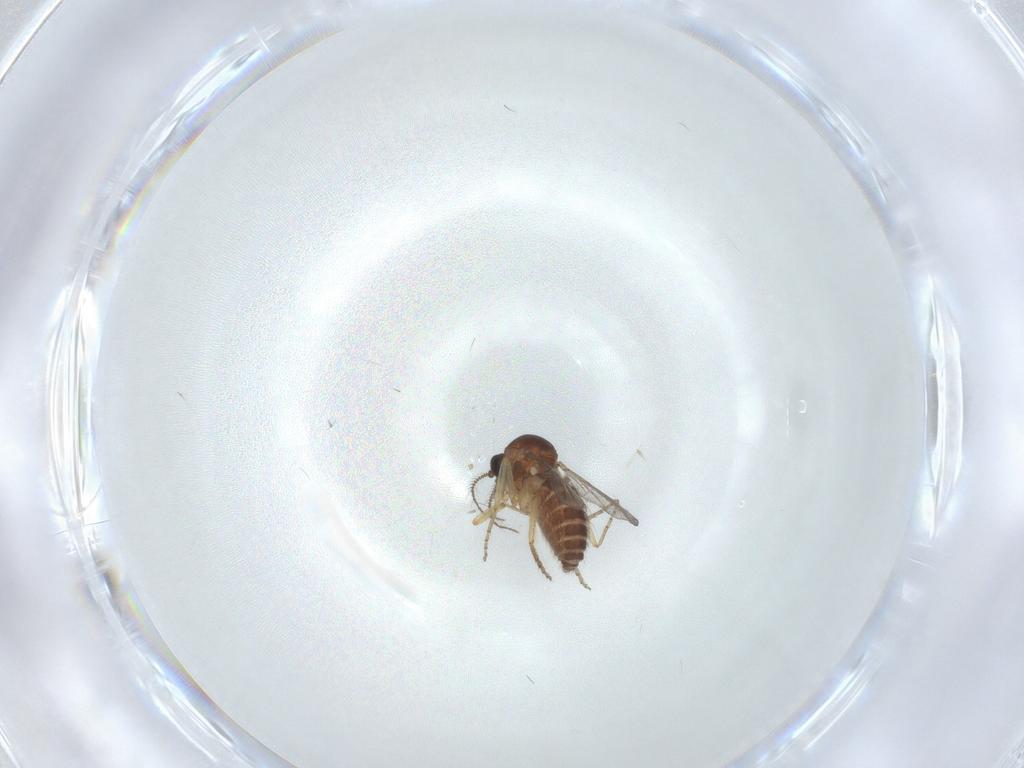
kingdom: Animalia
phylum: Arthropoda
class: Insecta
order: Diptera
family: Ceratopogonidae
